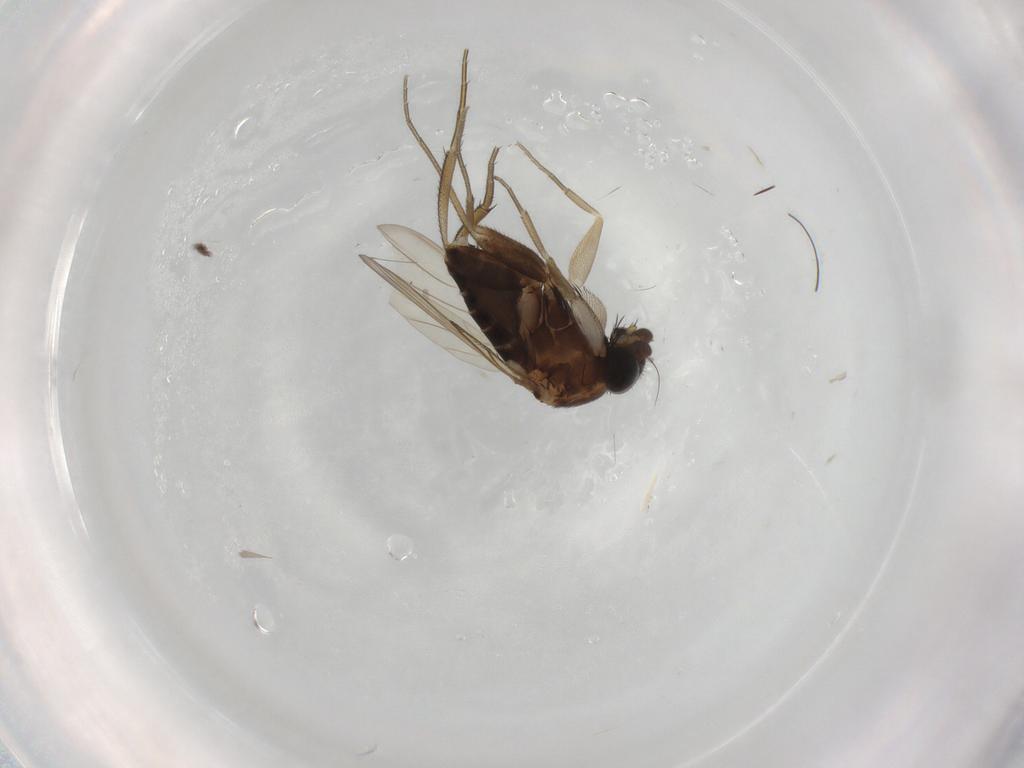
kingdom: Animalia
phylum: Arthropoda
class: Insecta
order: Diptera
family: Phoridae
